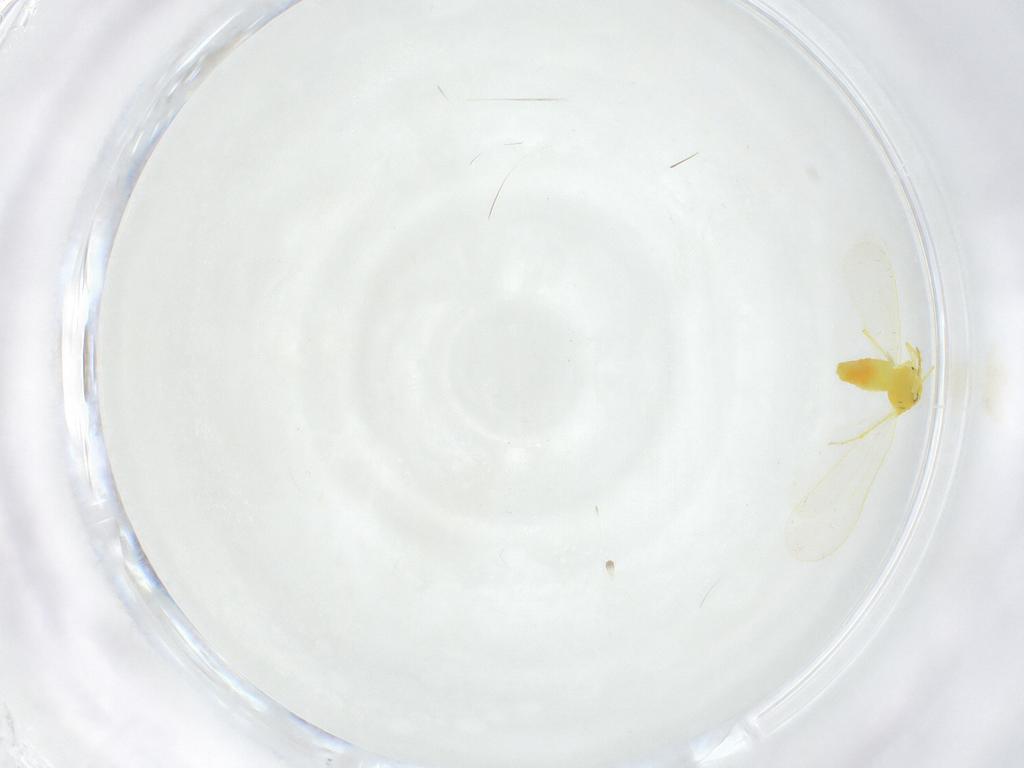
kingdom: Animalia
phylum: Arthropoda
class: Insecta
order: Hemiptera
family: Aleyrodidae
